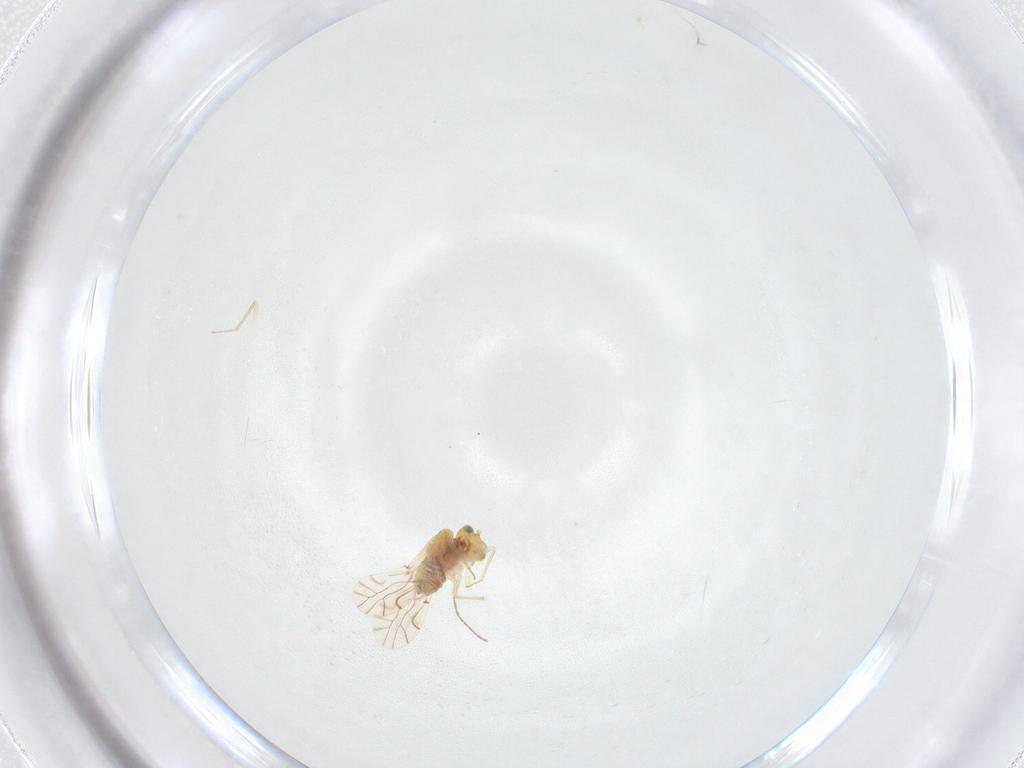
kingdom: Animalia
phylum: Arthropoda
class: Insecta
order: Psocodea
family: Lachesillidae
